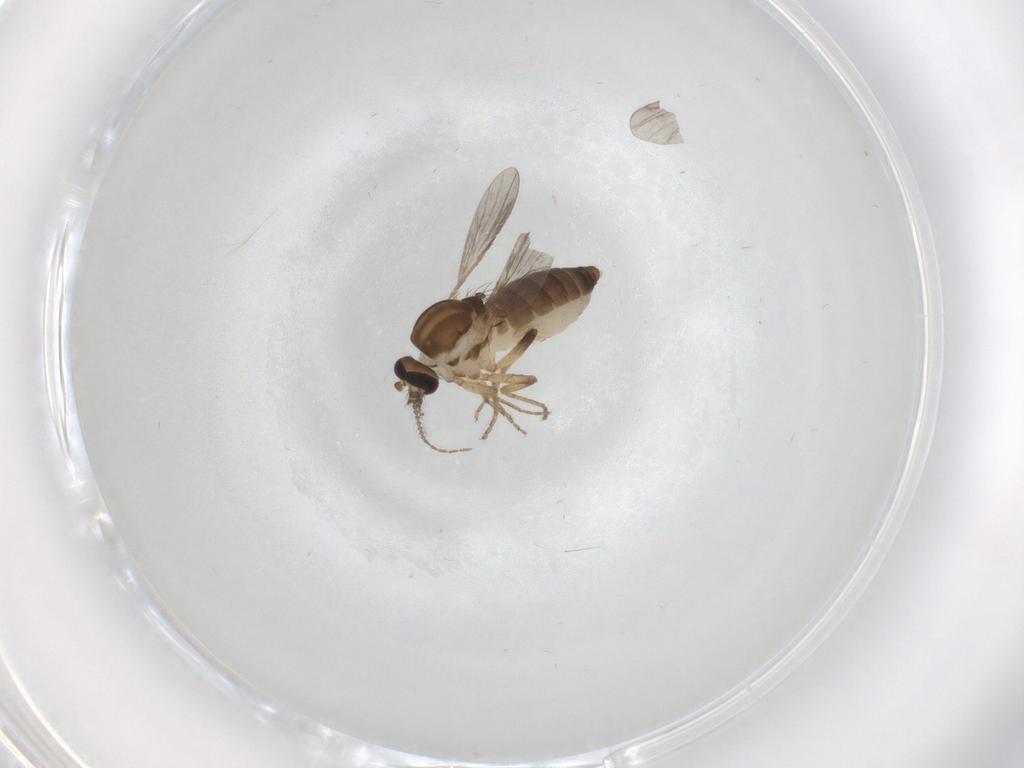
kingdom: Animalia
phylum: Arthropoda
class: Insecta
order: Diptera
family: Ceratopogonidae
